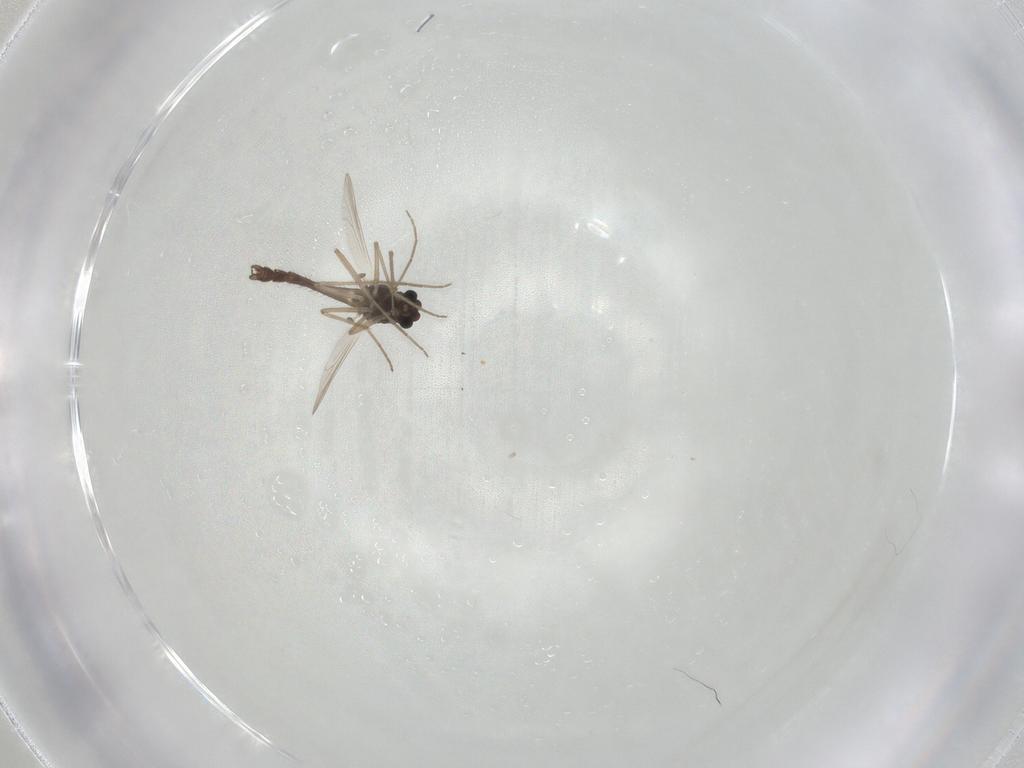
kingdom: Animalia
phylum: Arthropoda
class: Insecta
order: Diptera
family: Chironomidae
